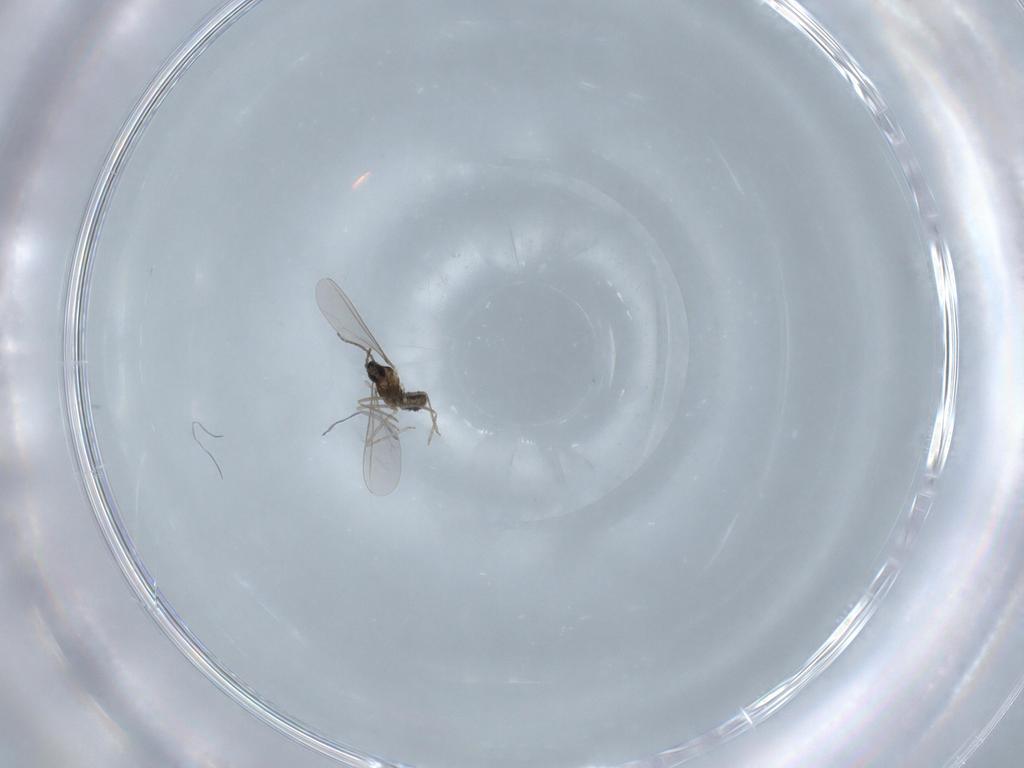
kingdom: Animalia
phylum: Arthropoda
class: Insecta
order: Diptera
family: Cecidomyiidae
